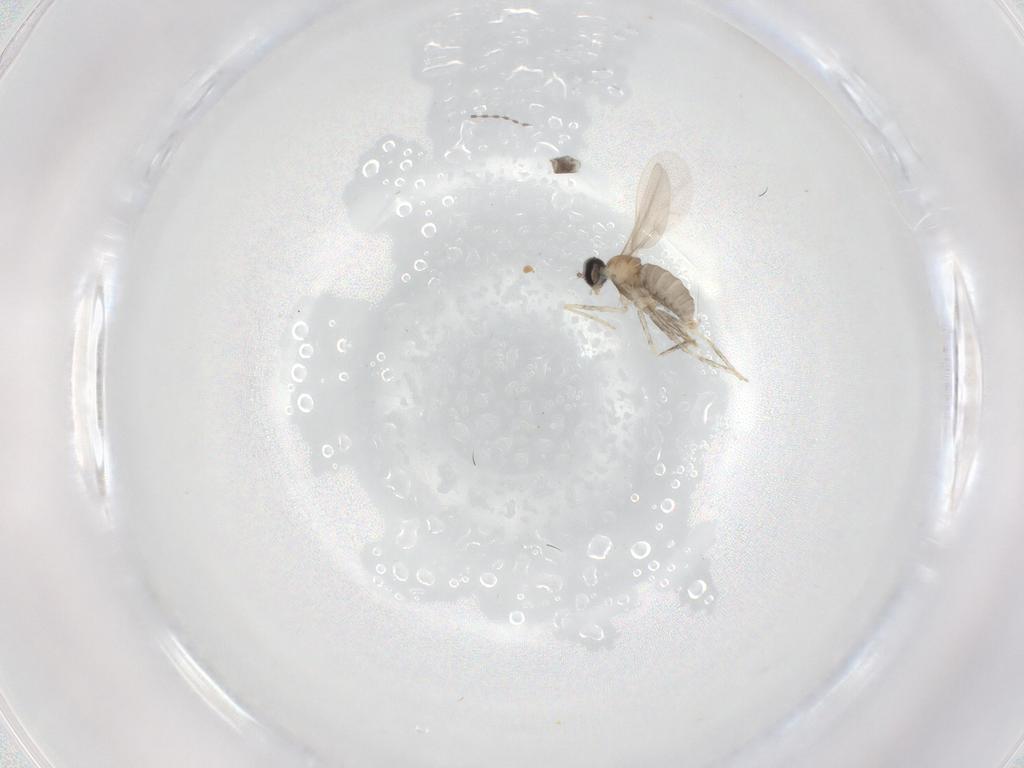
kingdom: Animalia
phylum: Arthropoda
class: Insecta
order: Diptera
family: Cecidomyiidae
